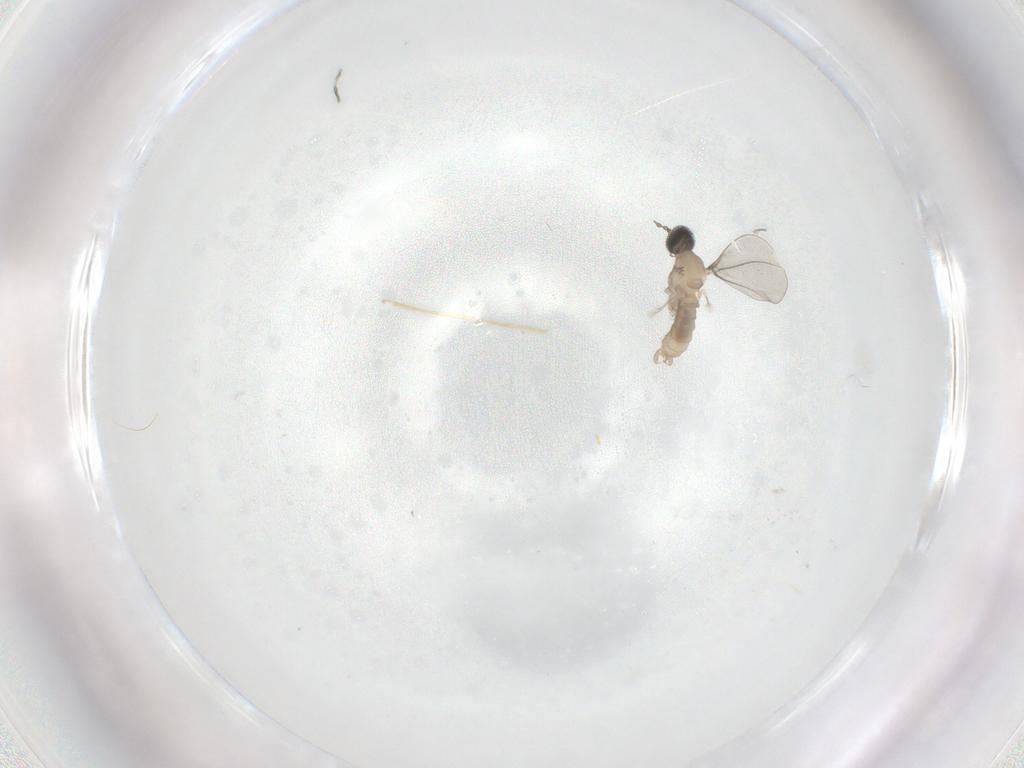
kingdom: Animalia
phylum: Arthropoda
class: Insecta
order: Diptera
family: Cecidomyiidae
